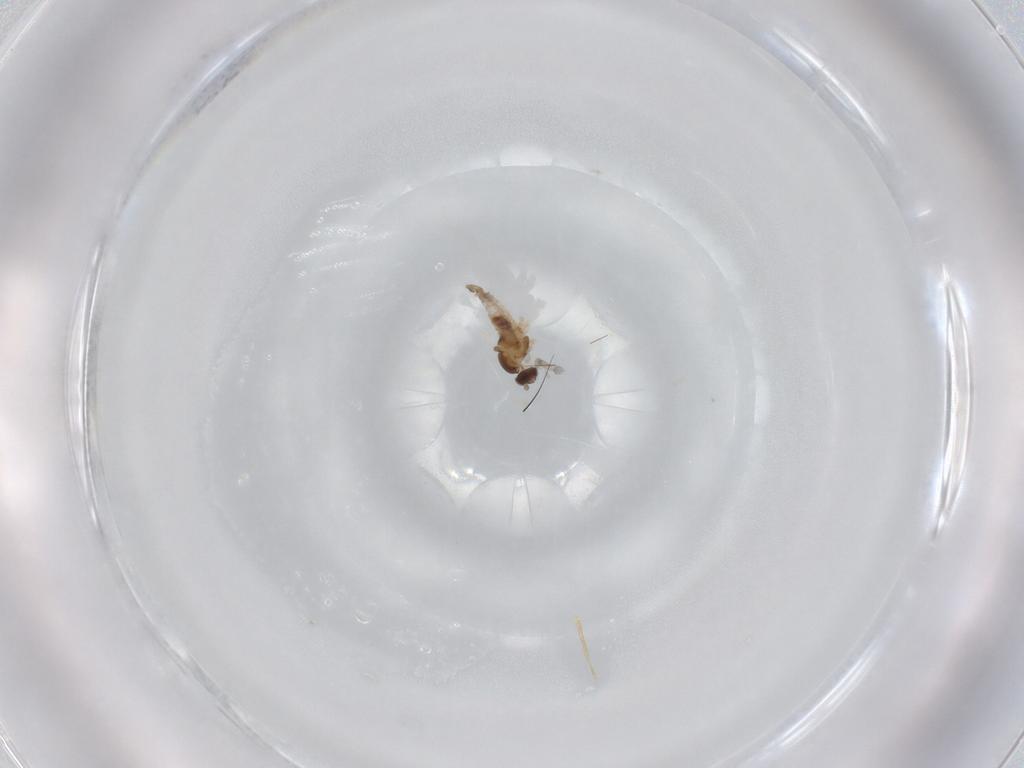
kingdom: Animalia
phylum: Arthropoda
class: Insecta
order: Diptera
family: Cecidomyiidae
